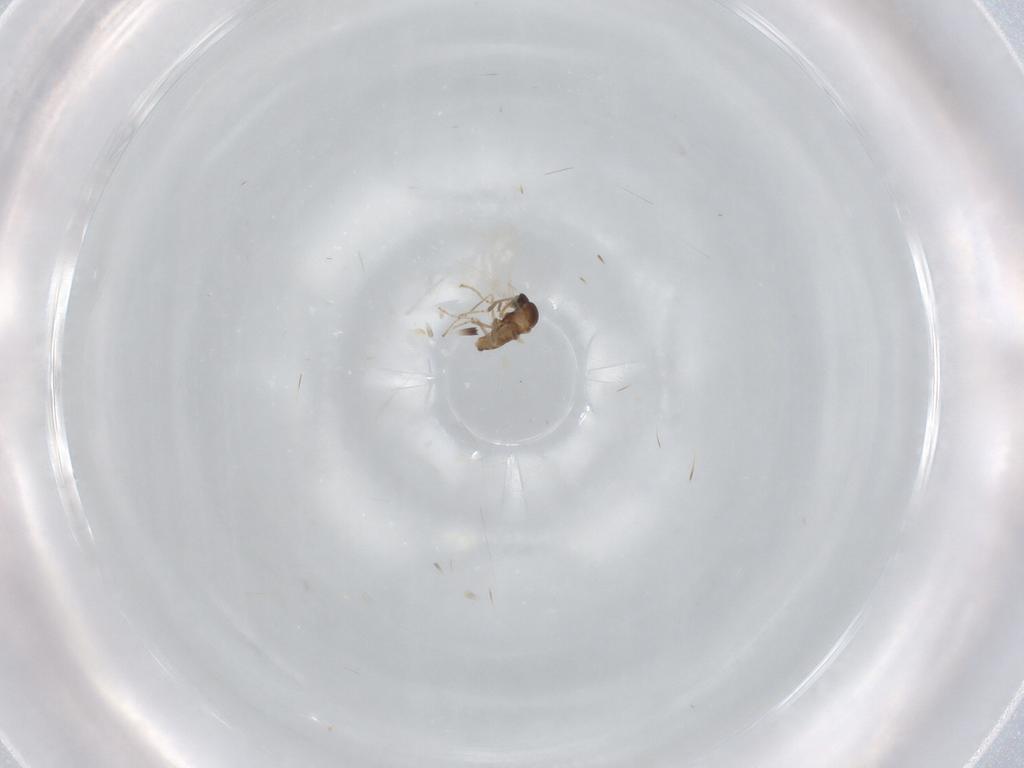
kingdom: Animalia
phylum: Arthropoda
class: Insecta
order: Diptera
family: Cecidomyiidae
